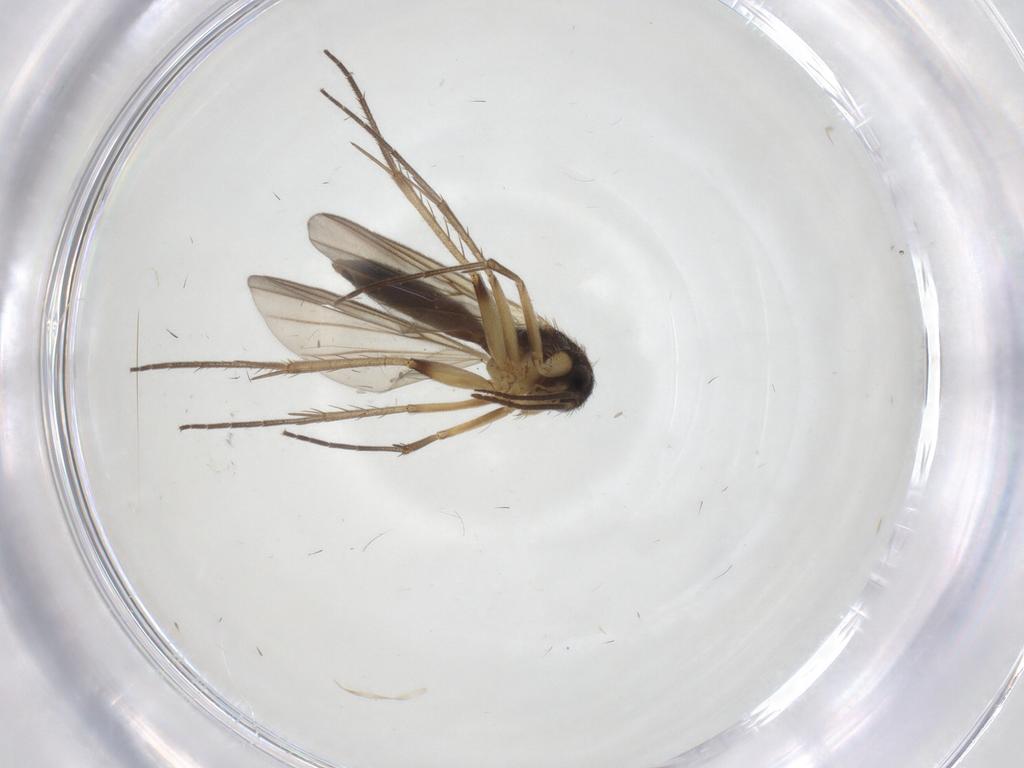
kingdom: Animalia
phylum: Arthropoda
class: Insecta
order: Diptera
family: Mycetophilidae
